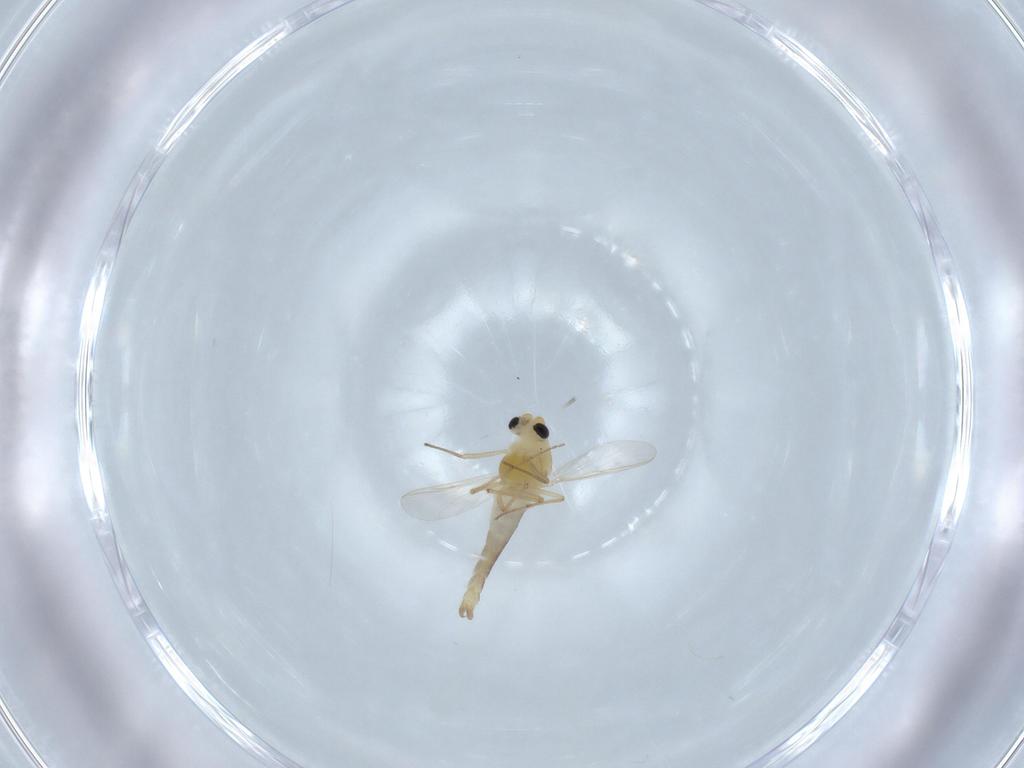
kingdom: Animalia
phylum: Arthropoda
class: Insecta
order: Diptera
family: Chironomidae
